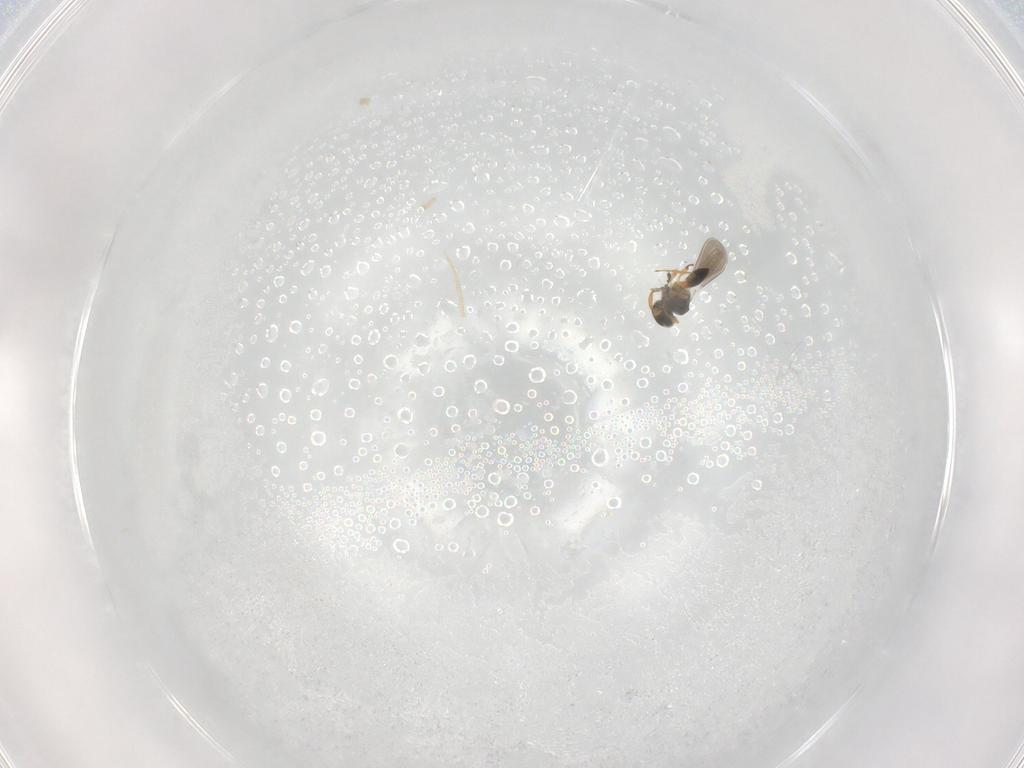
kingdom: Animalia
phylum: Arthropoda
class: Insecta
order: Hymenoptera
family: Platygastridae
